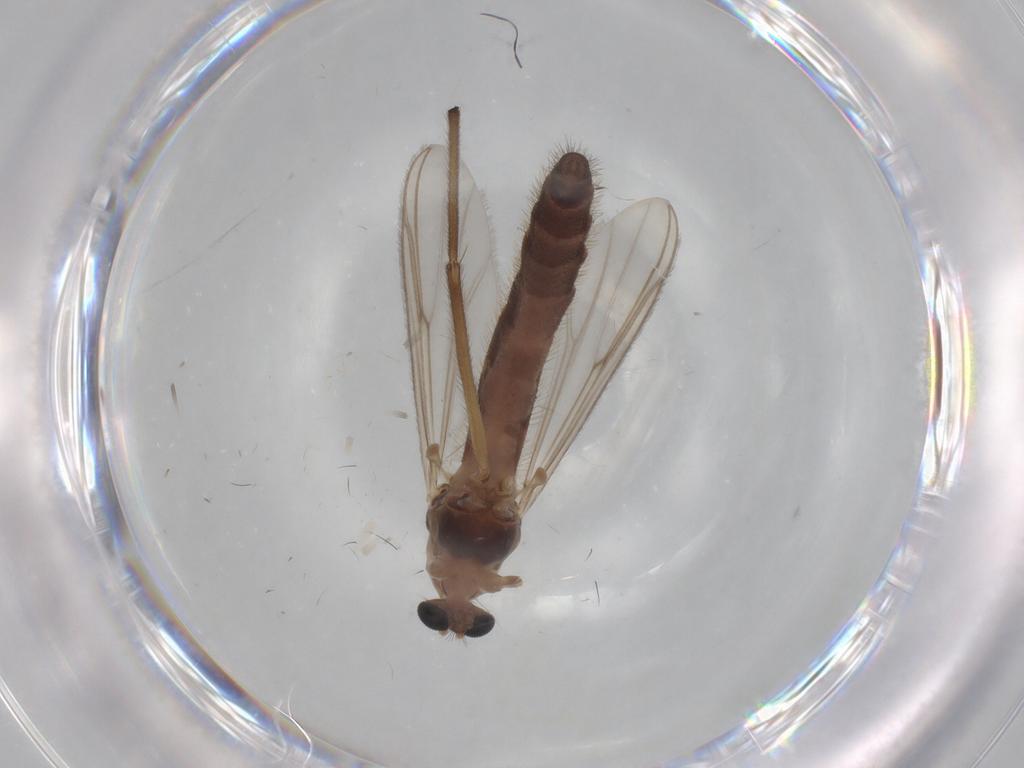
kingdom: Animalia
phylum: Arthropoda
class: Insecta
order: Diptera
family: Chironomidae
